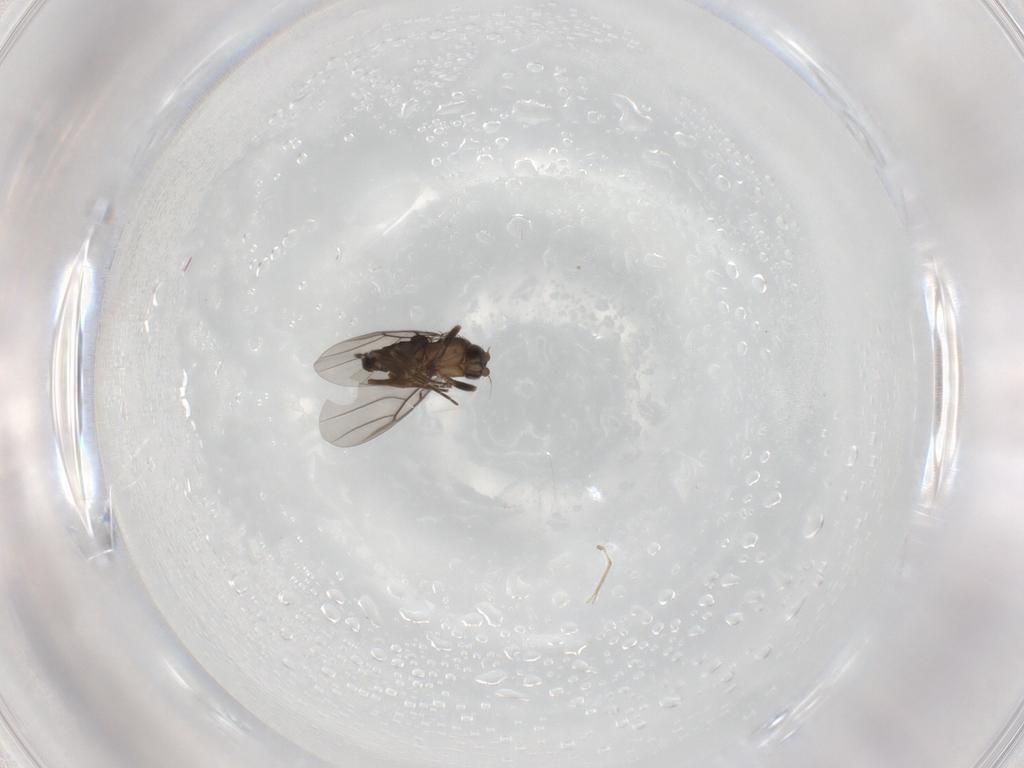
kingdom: Animalia
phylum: Arthropoda
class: Insecta
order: Diptera
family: Phoridae
